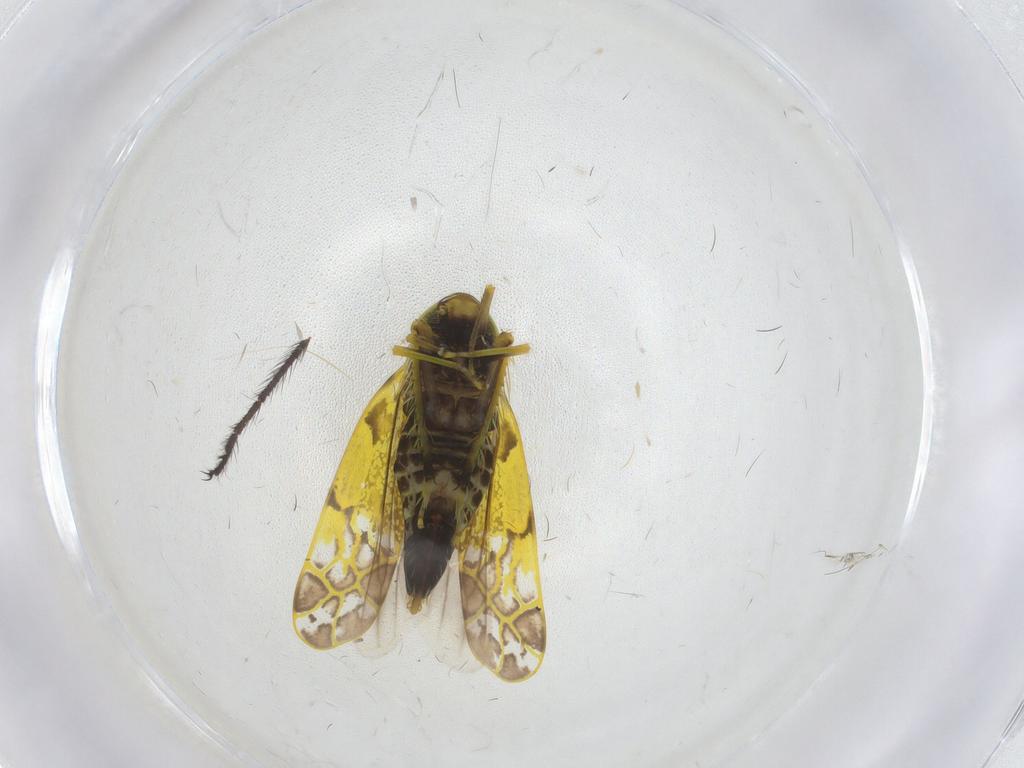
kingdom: Animalia
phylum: Arthropoda
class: Insecta
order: Hemiptera
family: Cicadellidae
